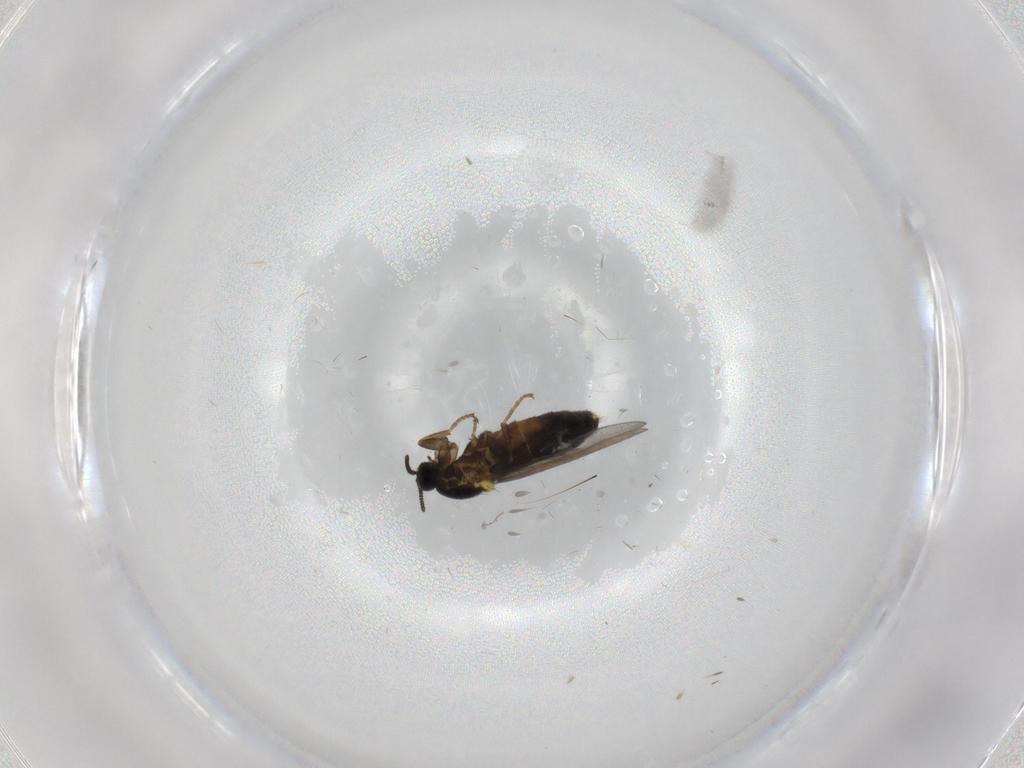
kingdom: Animalia
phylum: Arthropoda
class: Insecta
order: Diptera
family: Scatopsidae
